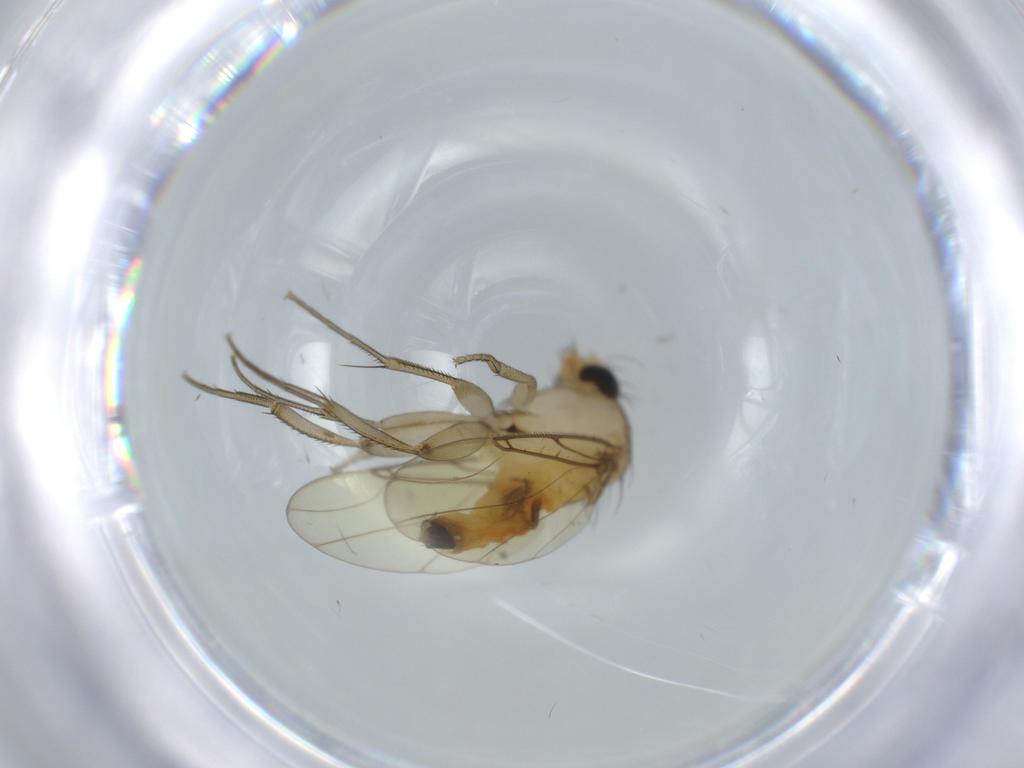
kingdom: Animalia
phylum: Arthropoda
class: Insecta
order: Diptera
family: Phoridae
